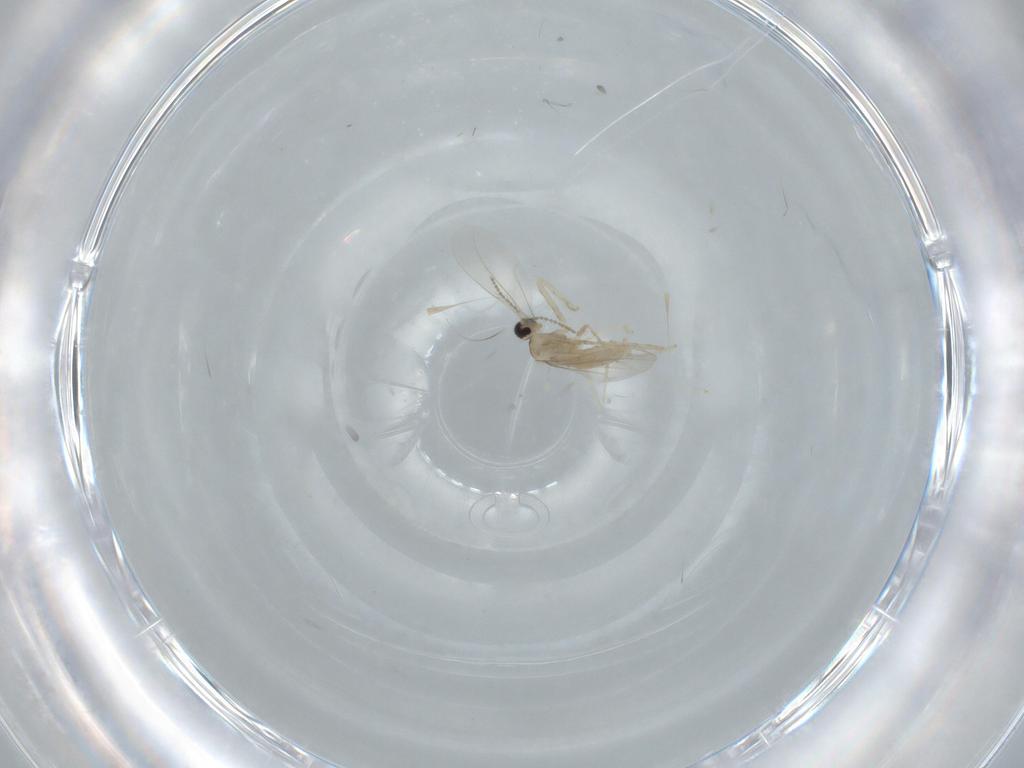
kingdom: Animalia
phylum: Arthropoda
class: Insecta
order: Diptera
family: Cecidomyiidae
